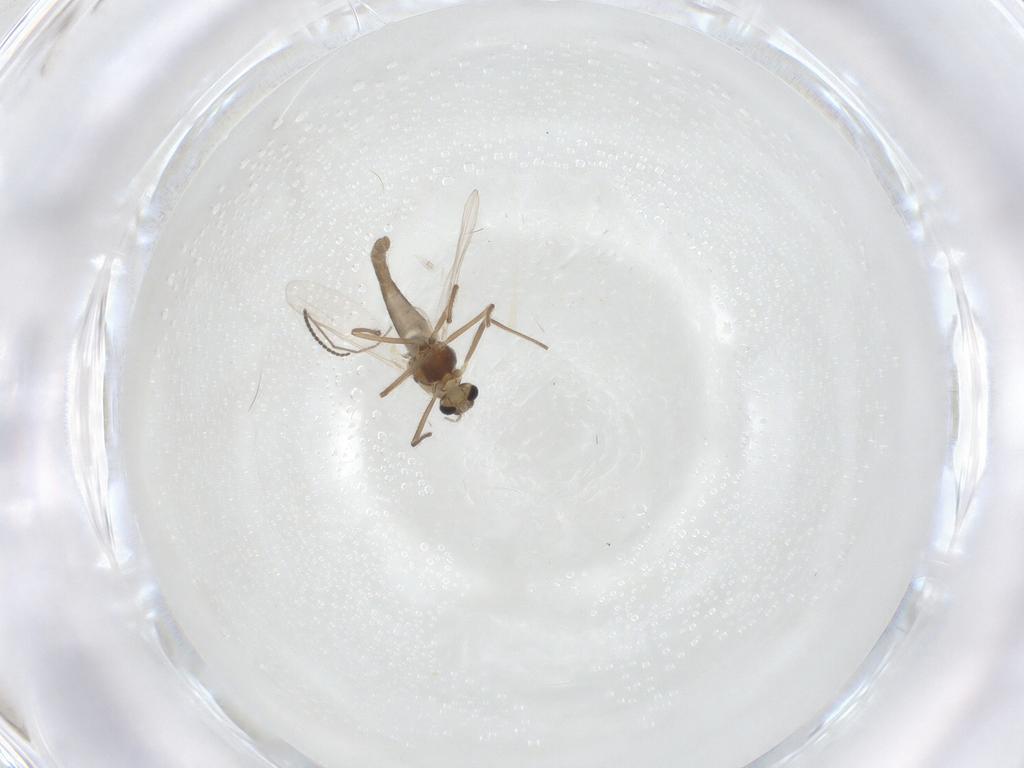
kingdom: Animalia
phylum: Arthropoda
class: Insecta
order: Diptera
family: Chironomidae
